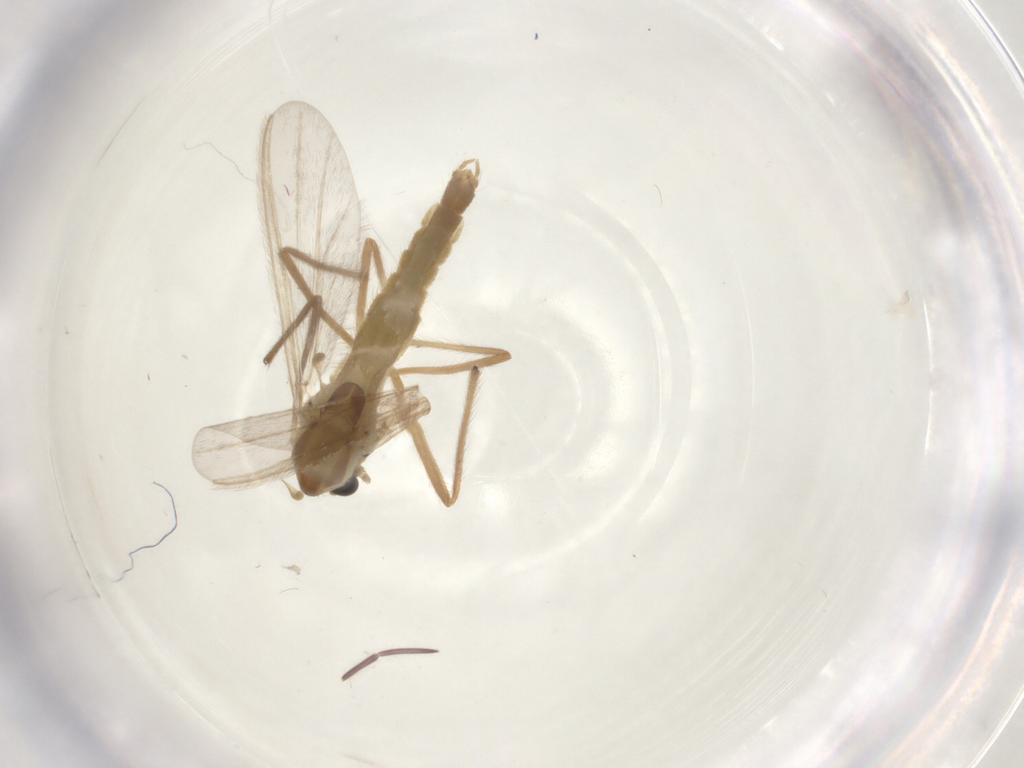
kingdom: Animalia
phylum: Arthropoda
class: Insecta
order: Diptera
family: Chironomidae
